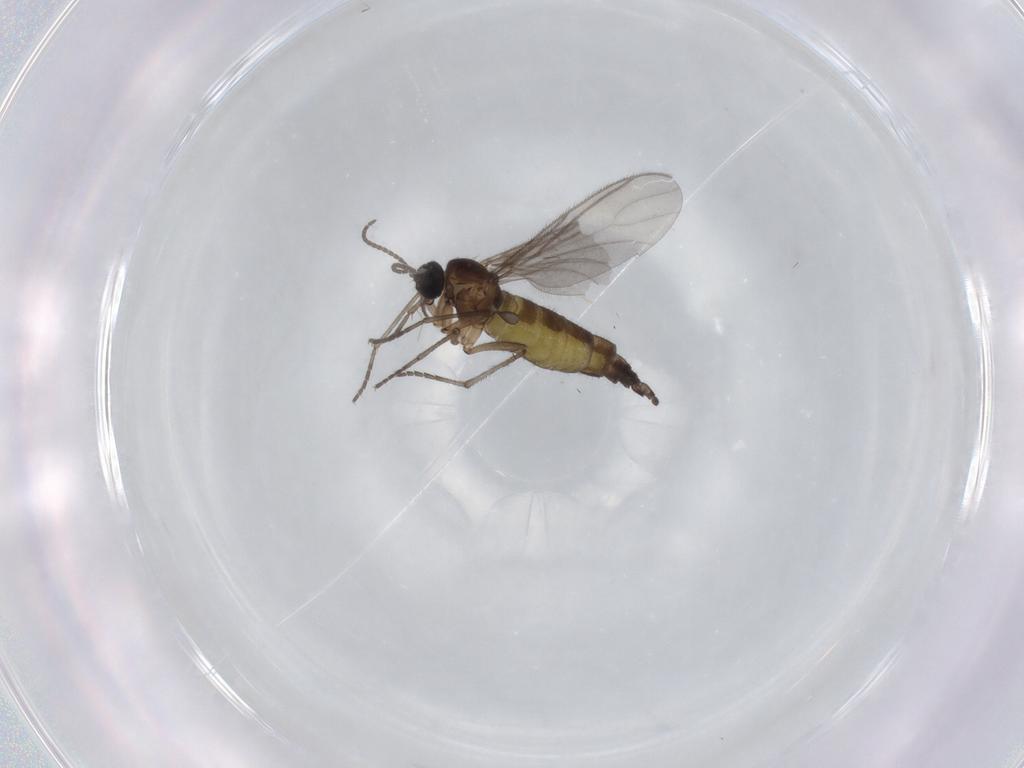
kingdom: Animalia
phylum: Arthropoda
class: Insecta
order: Diptera
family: Sciaridae
